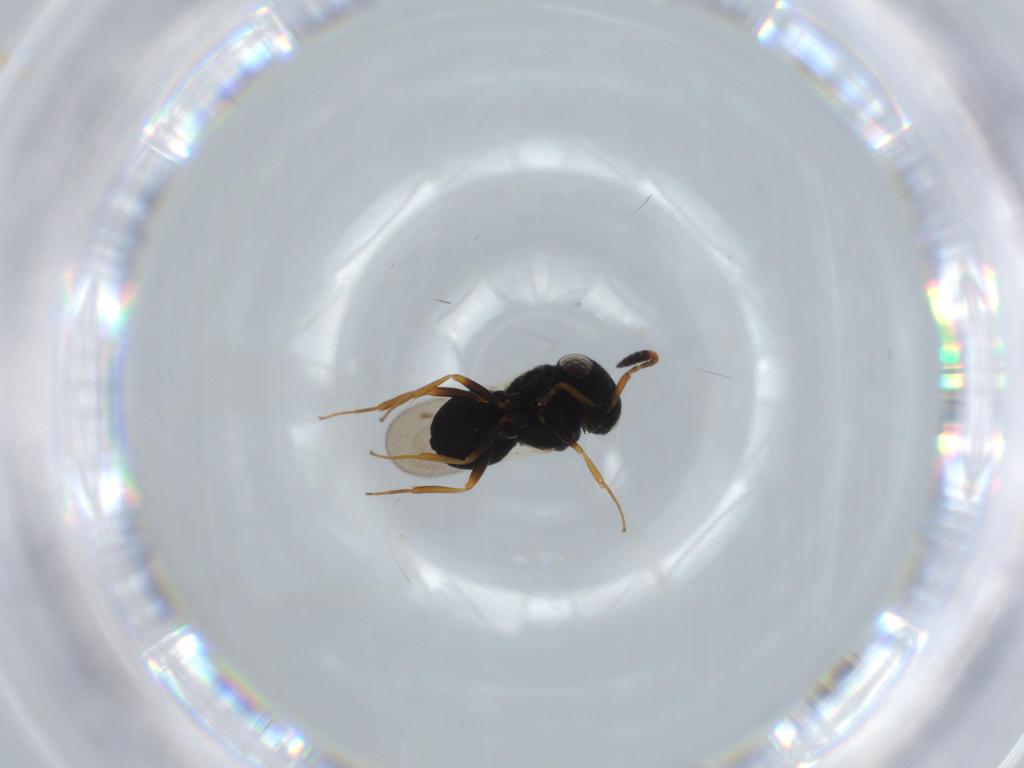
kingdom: Animalia
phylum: Arthropoda
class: Insecta
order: Hymenoptera
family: Scelionidae
